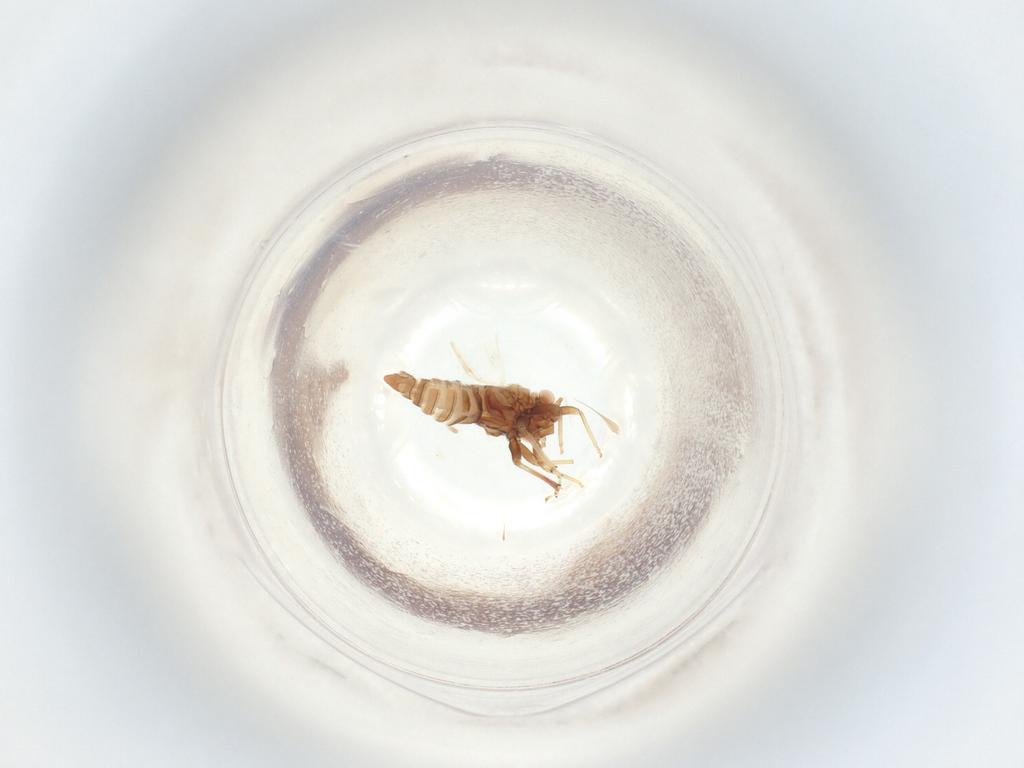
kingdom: Animalia
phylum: Arthropoda
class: Insecta
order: Hemiptera
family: Psyllidae
